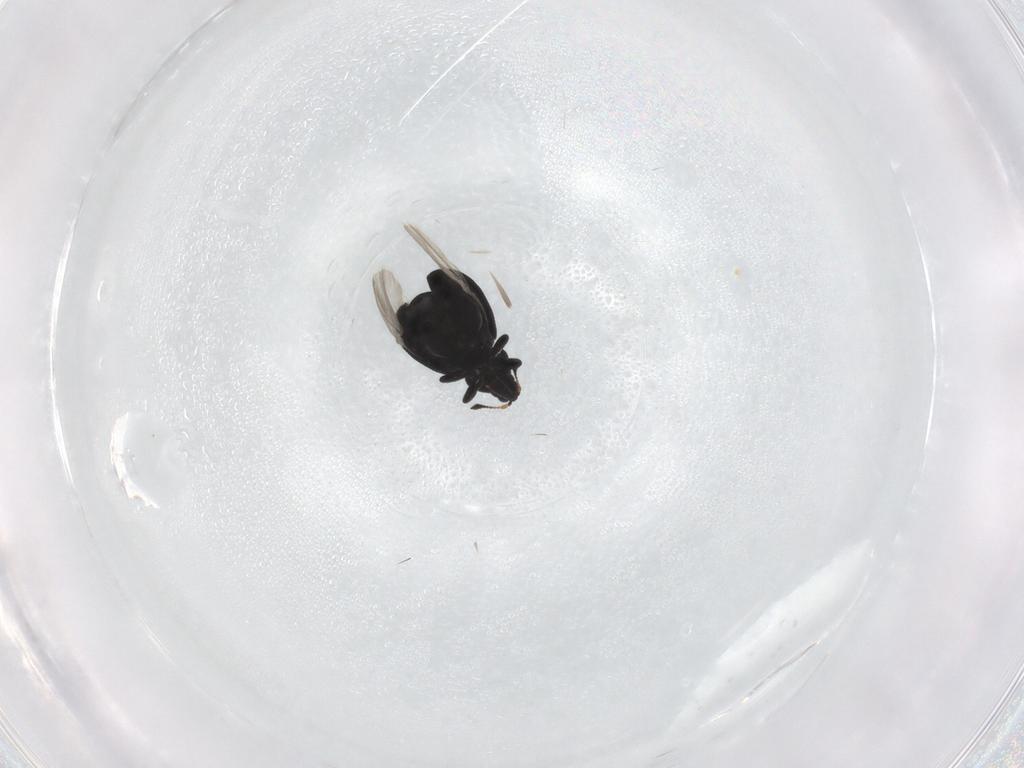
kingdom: Animalia
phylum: Arthropoda
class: Insecta
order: Coleoptera
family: Curculionidae
